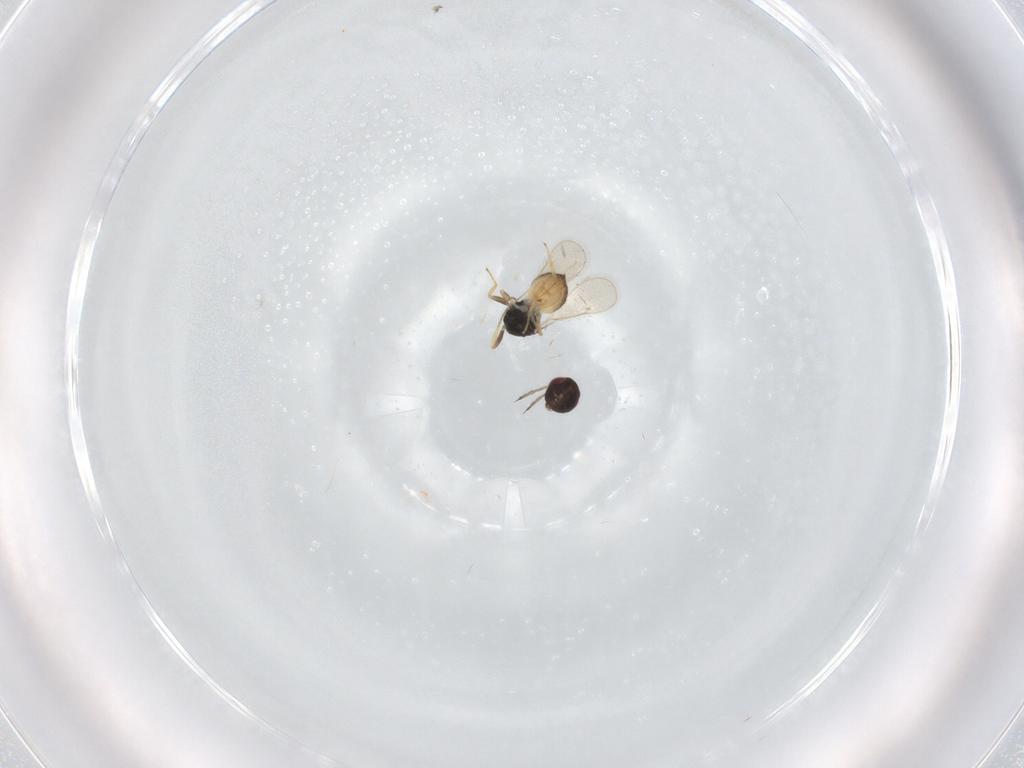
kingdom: Animalia
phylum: Arthropoda
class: Insecta
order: Hymenoptera
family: Eulophidae
